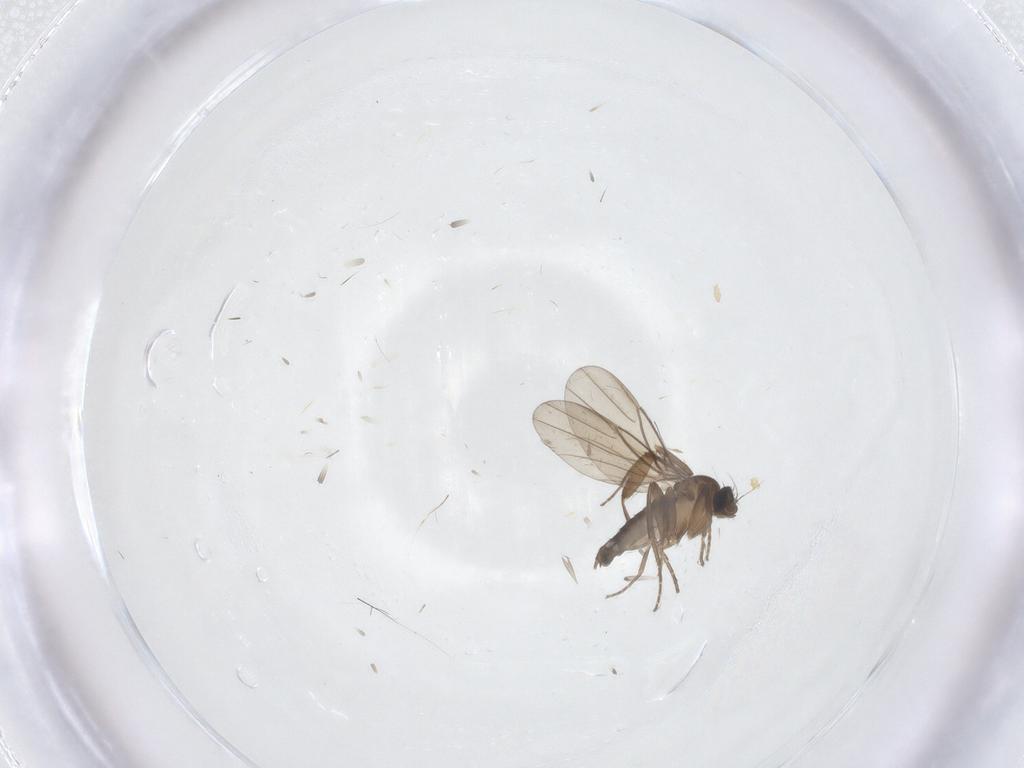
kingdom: Animalia
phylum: Arthropoda
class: Insecta
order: Diptera
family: Phoridae
